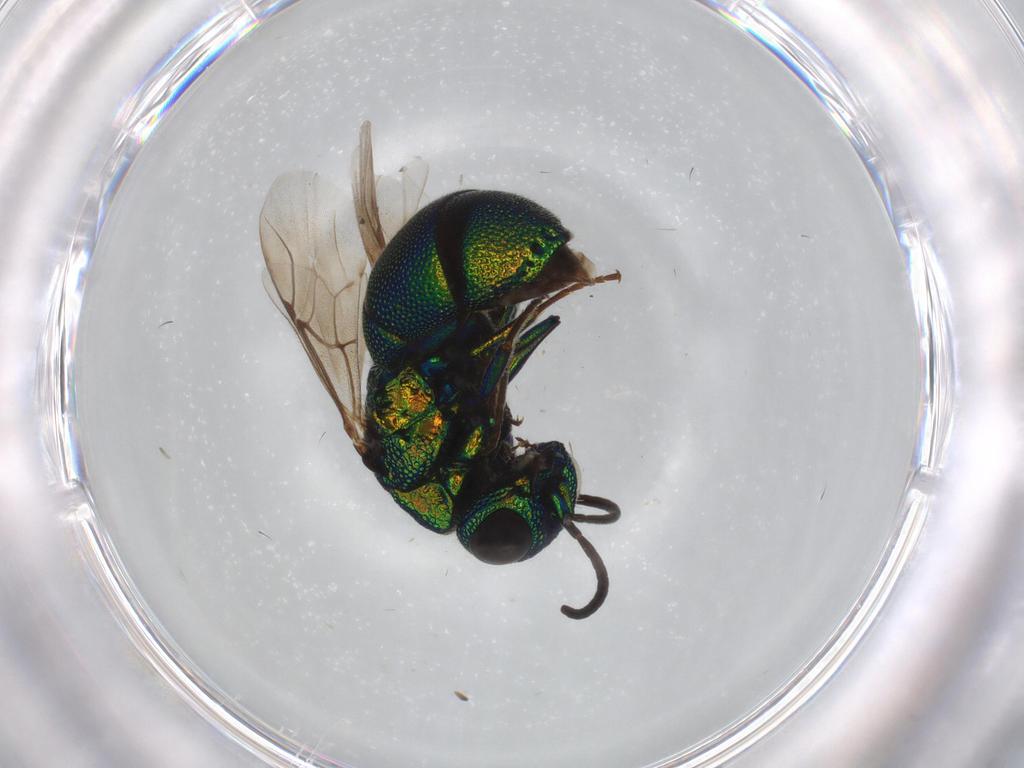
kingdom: Animalia
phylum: Arthropoda
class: Insecta
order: Hymenoptera
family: Chrysididae
